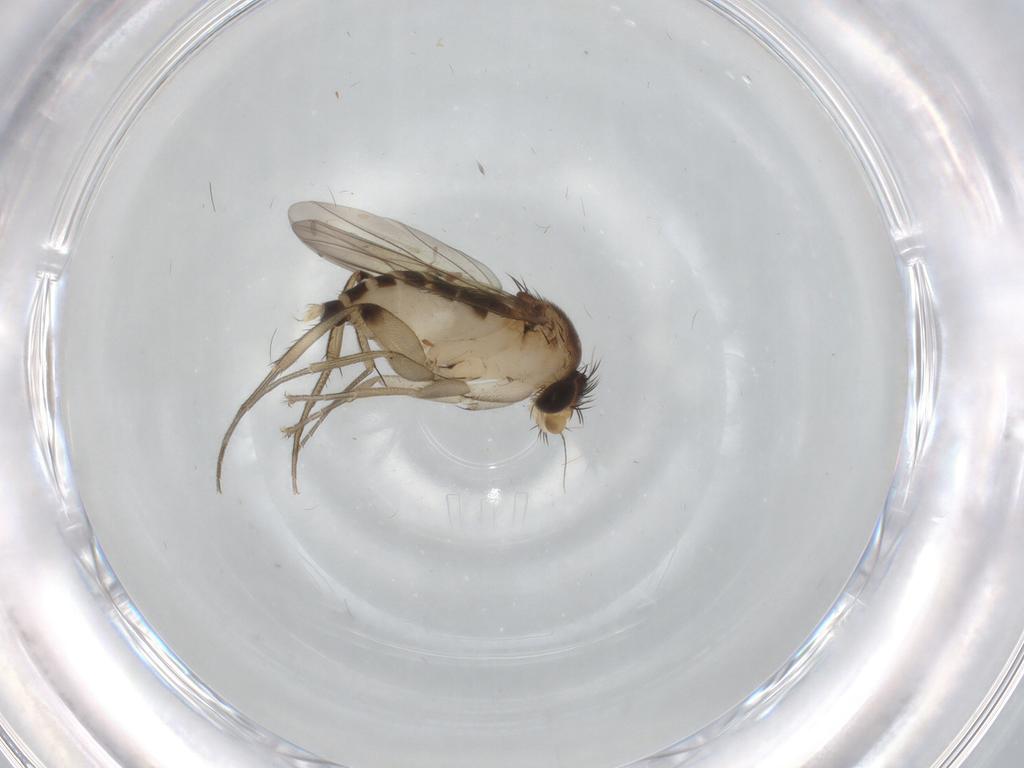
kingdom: Animalia
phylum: Arthropoda
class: Insecta
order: Diptera
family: Phoridae
